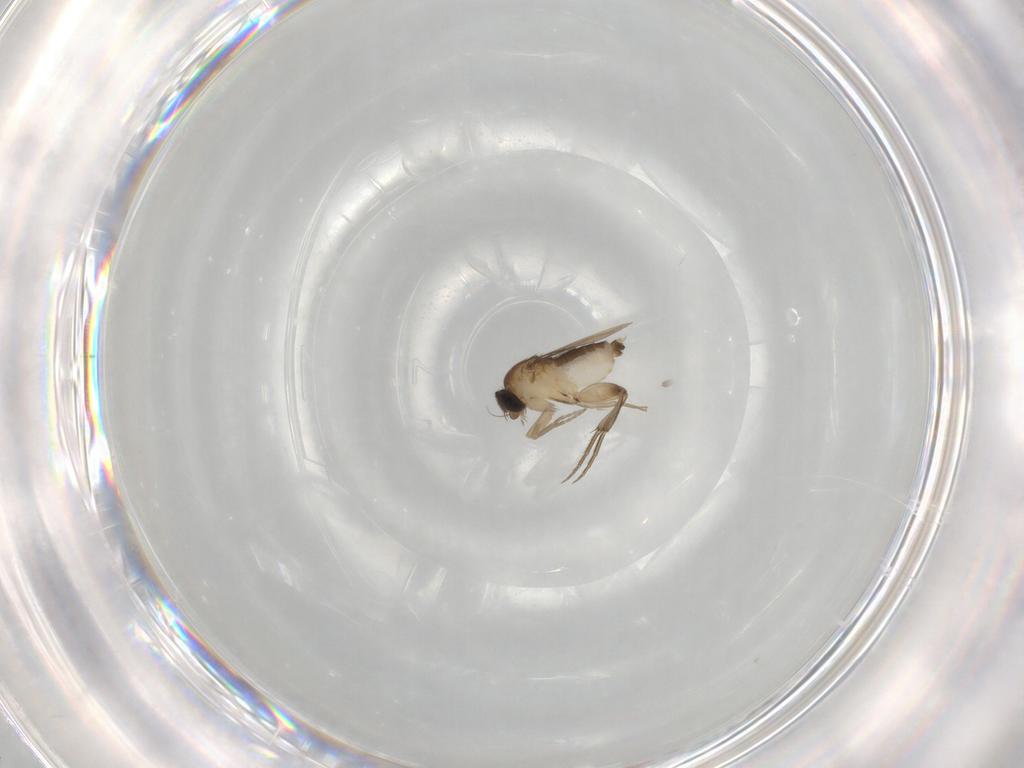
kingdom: Animalia
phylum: Arthropoda
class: Insecta
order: Diptera
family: Phoridae
